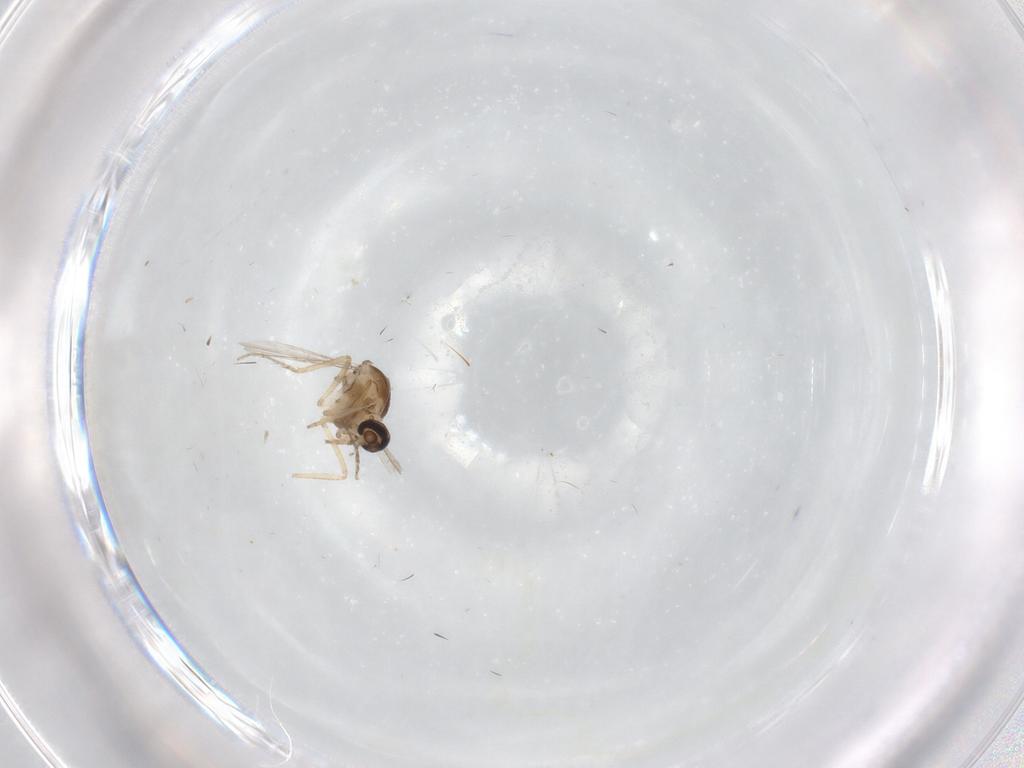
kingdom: Animalia
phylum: Arthropoda
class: Insecta
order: Diptera
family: Ceratopogonidae
